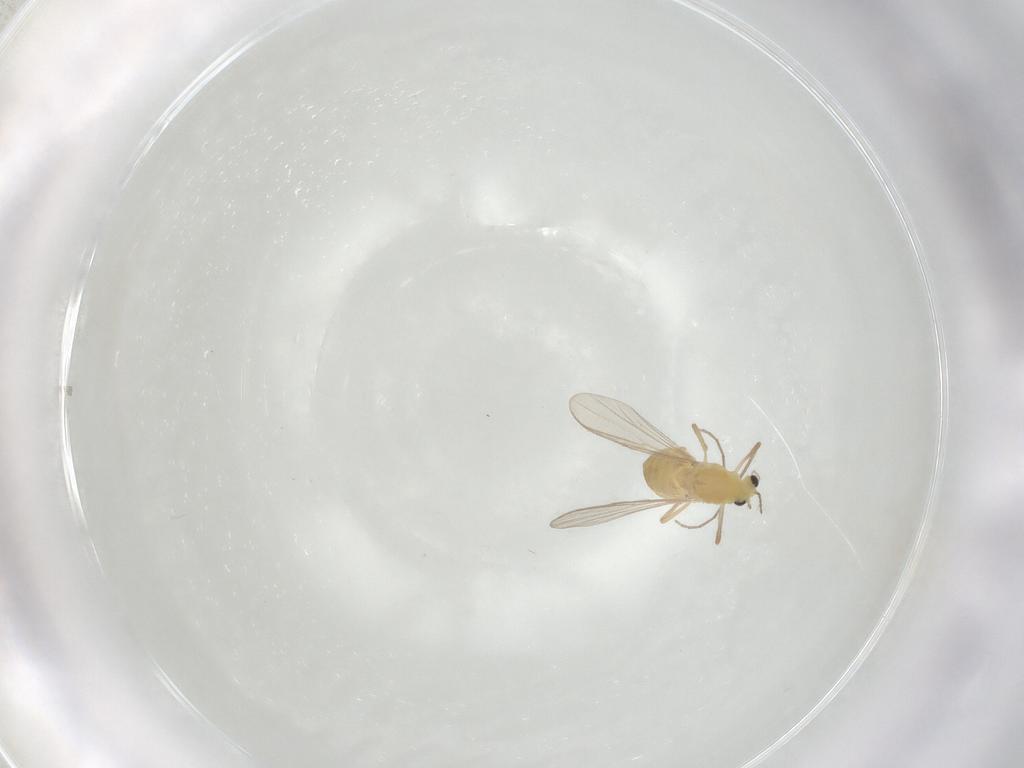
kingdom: Animalia
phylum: Arthropoda
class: Insecta
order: Diptera
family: Chironomidae
